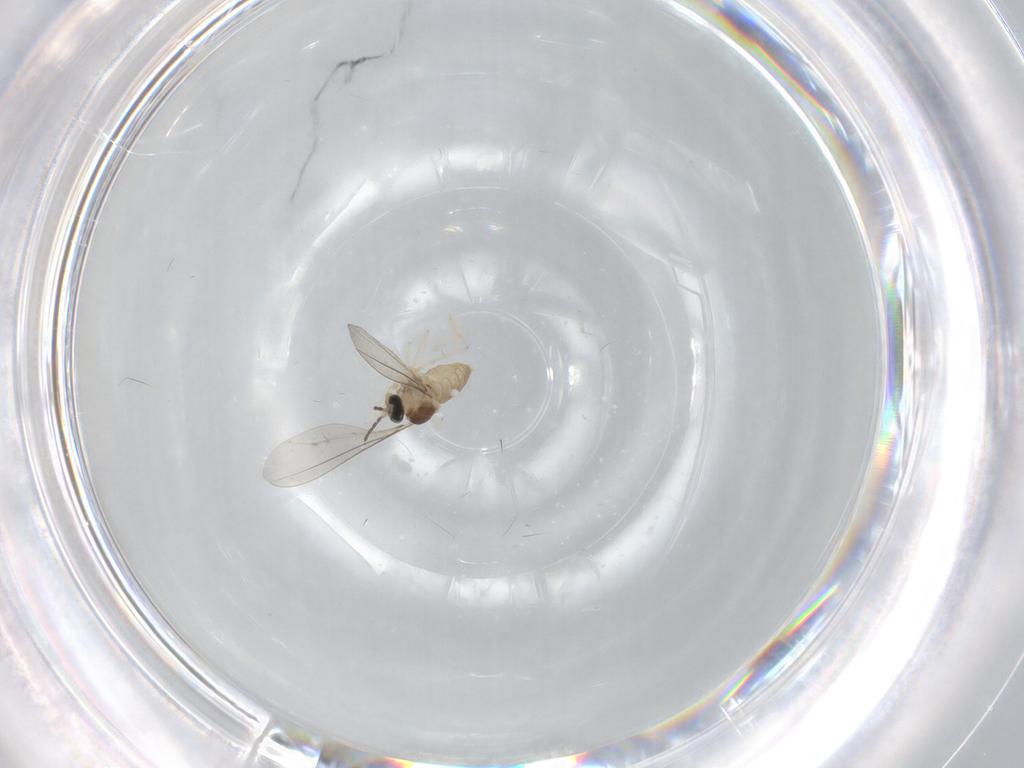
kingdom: Animalia
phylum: Arthropoda
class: Insecta
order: Diptera
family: Cecidomyiidae
